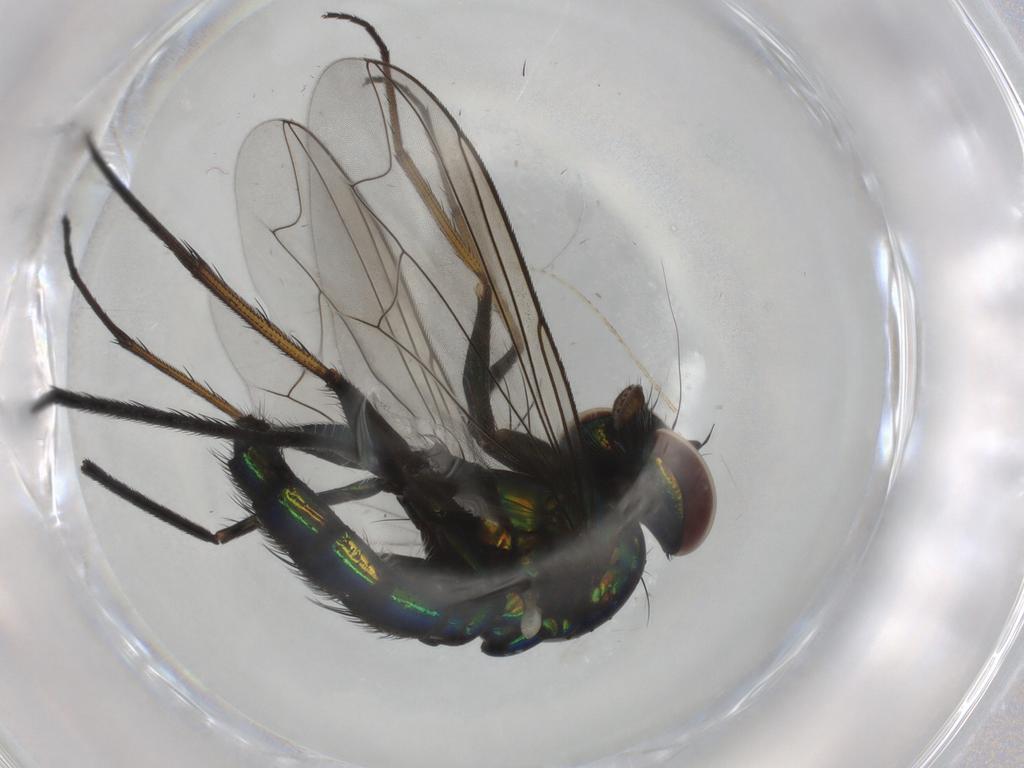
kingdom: Animalia
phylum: Arthropoda
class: Insecta
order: Diptera
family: Dolichopodidae
